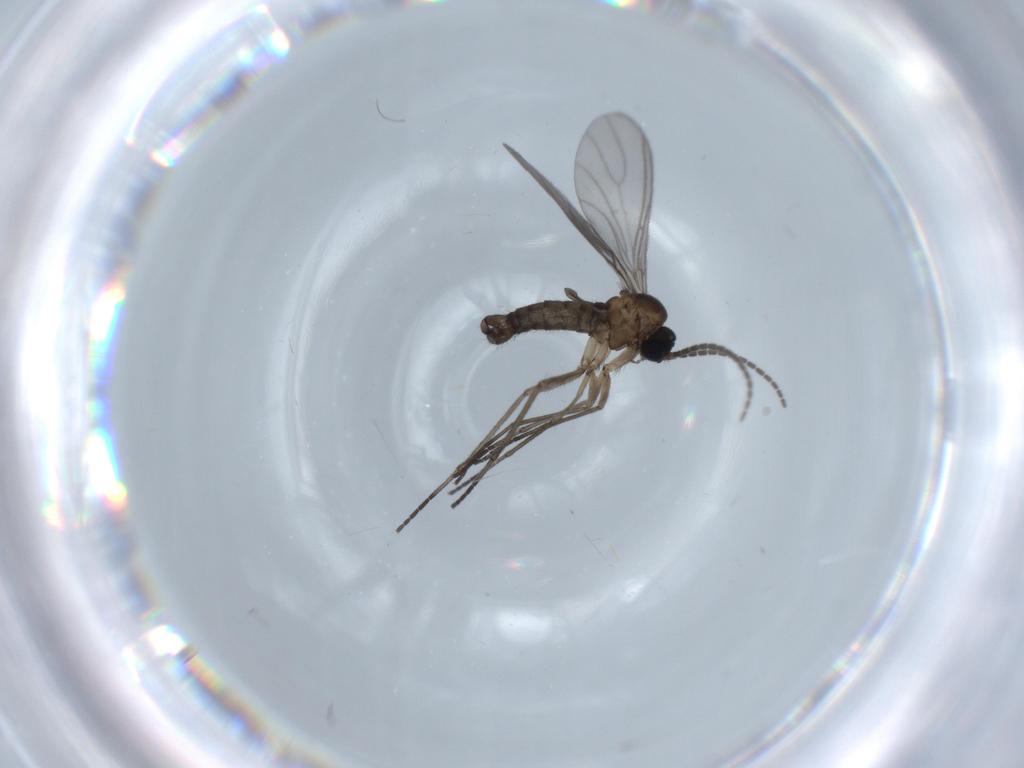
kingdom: Animalia
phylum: Arthropoda
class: Insecta
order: Diptera
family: Sciaridae
